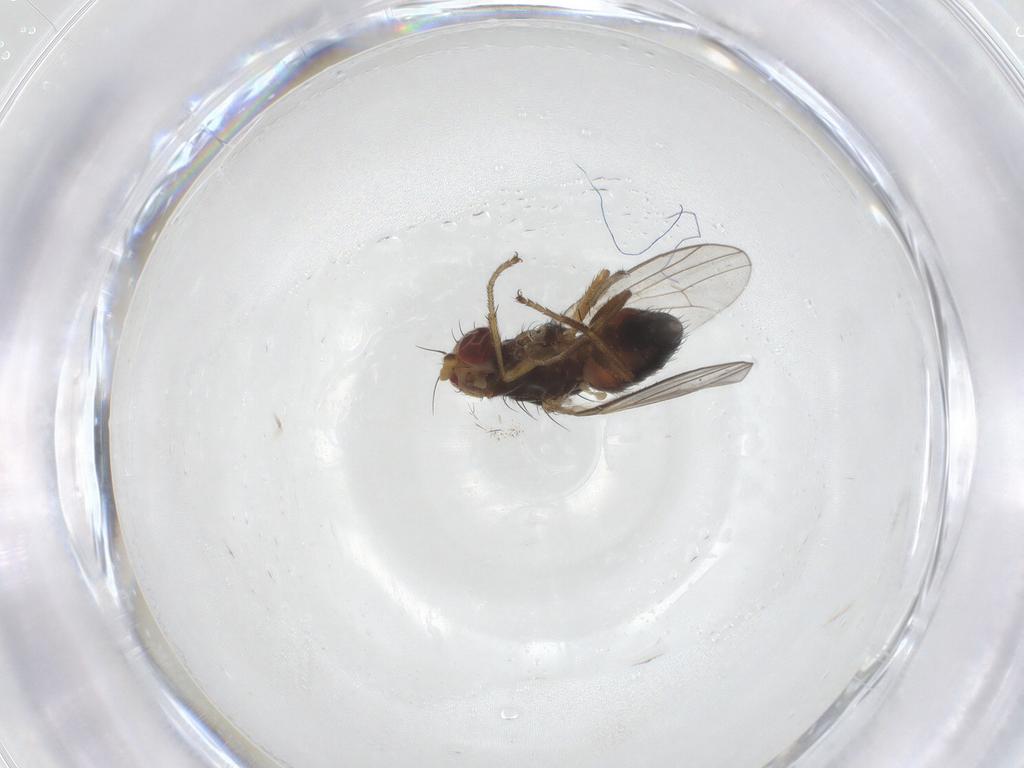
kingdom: Animalia
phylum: Arthropoda
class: Insecta
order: Diptera
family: Heleomyzidae
